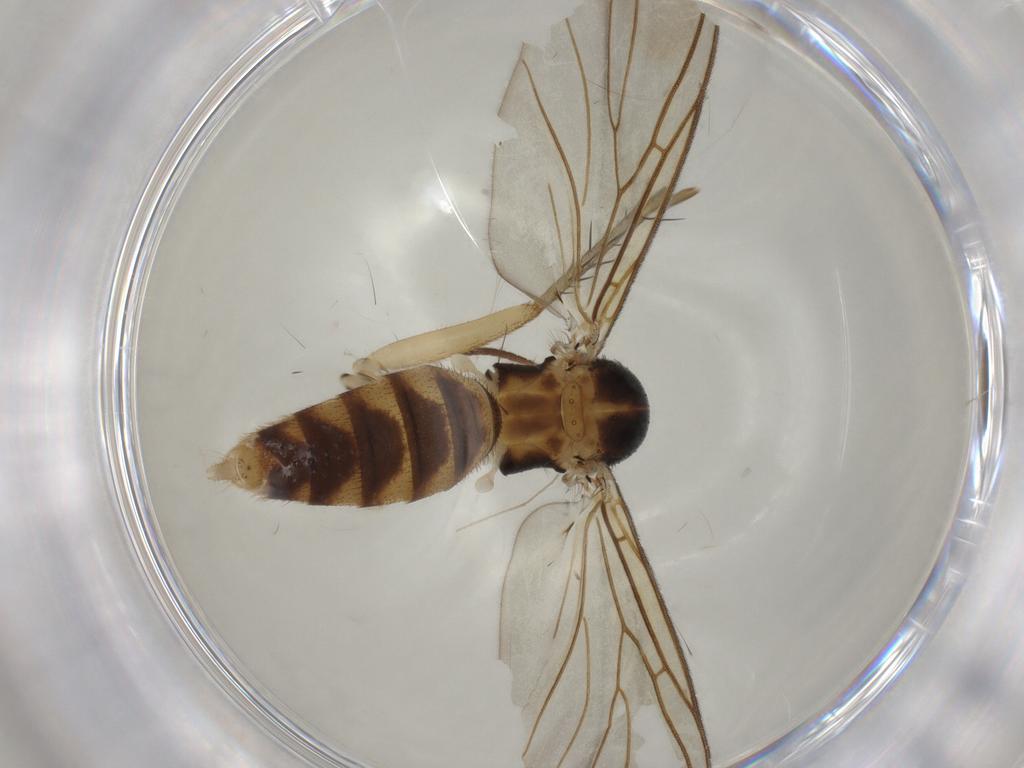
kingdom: Animalia
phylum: Arthropoda
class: Insecta
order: Diptera
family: Mycetophilidae
